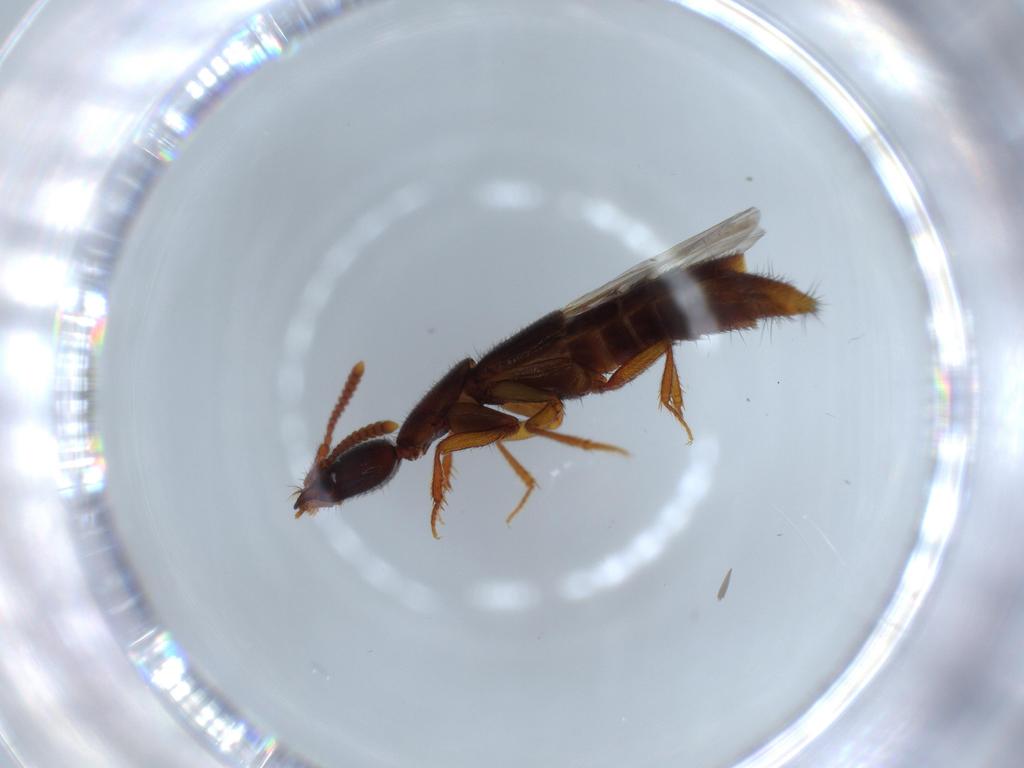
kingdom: Animalia
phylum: Arthropoda
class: Insecta
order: Coleoptera
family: Staphylinidae
